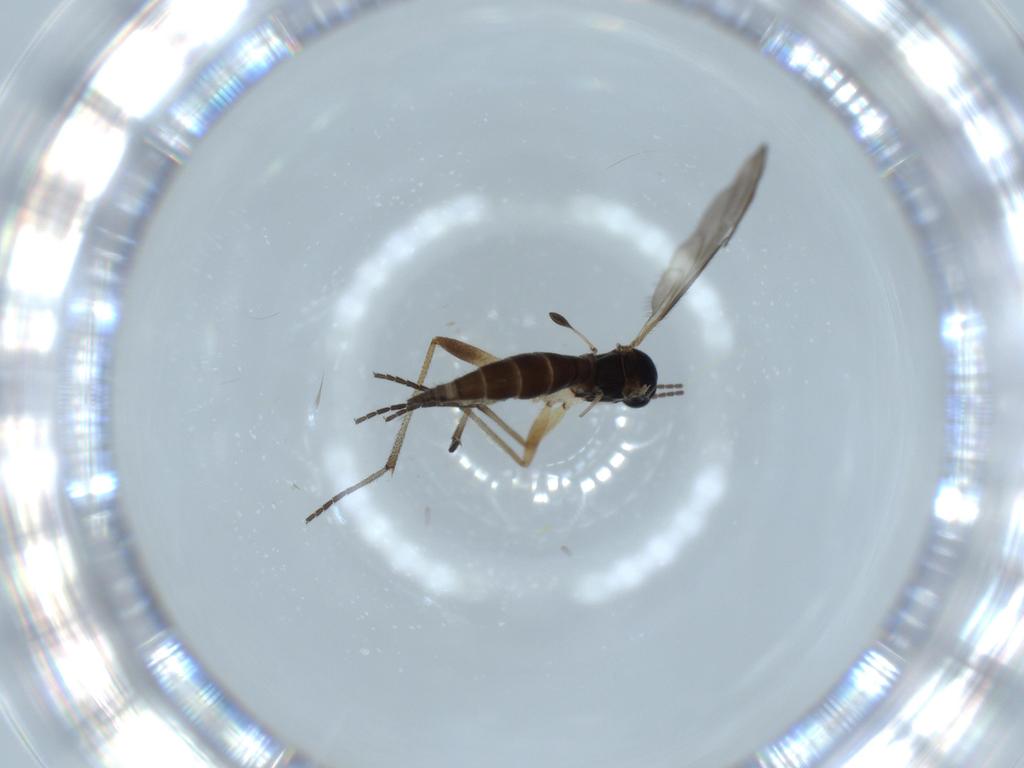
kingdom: Animalia
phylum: Arthropoda
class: Insecta
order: Diptera
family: Sciaridae
